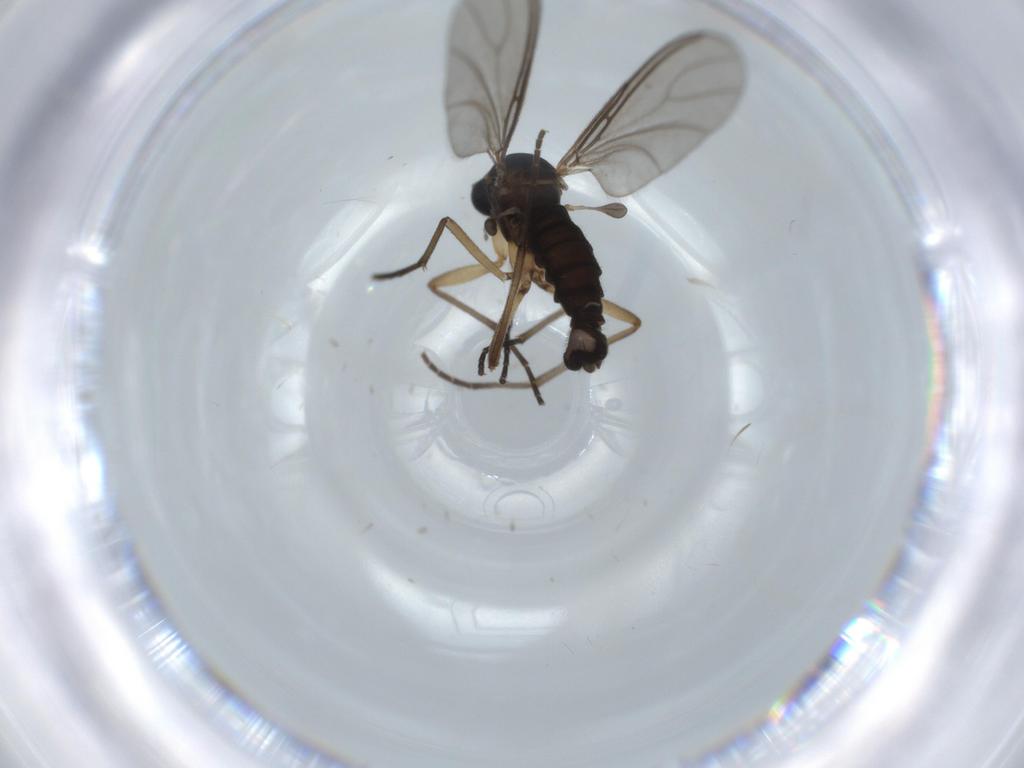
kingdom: Animalia
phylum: Arthropoda
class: Insecta
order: Diptera
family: Sciaridae
